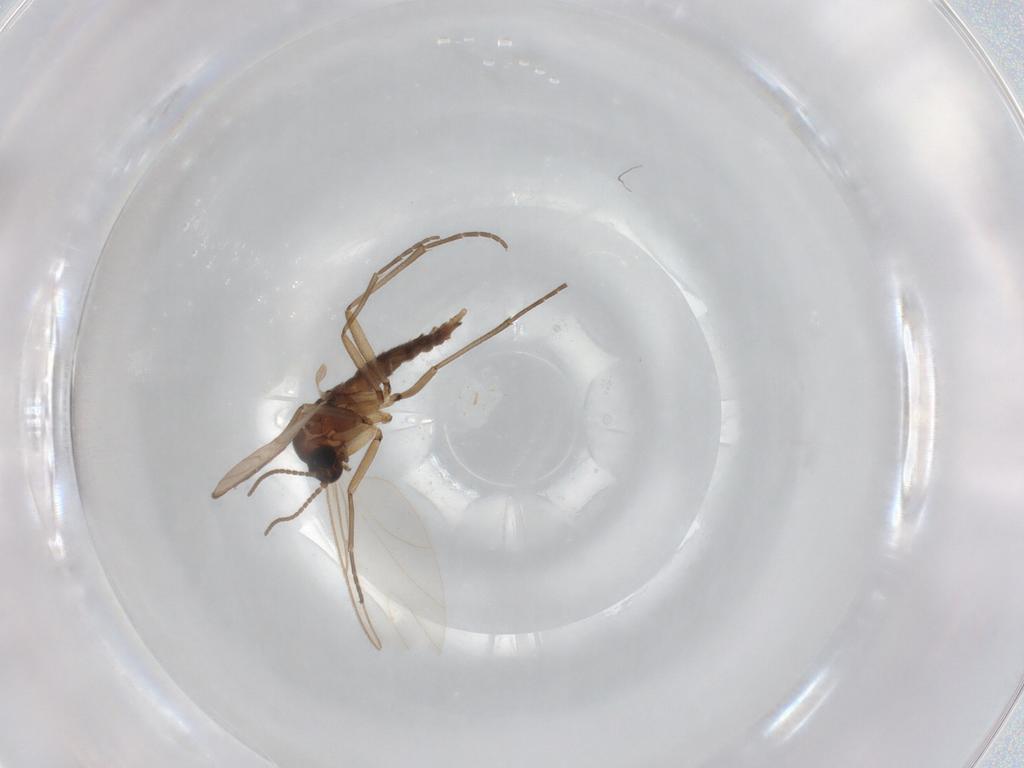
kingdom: Animalia
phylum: Arthropoda
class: Insecta
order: Diptera
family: Sciaridae
